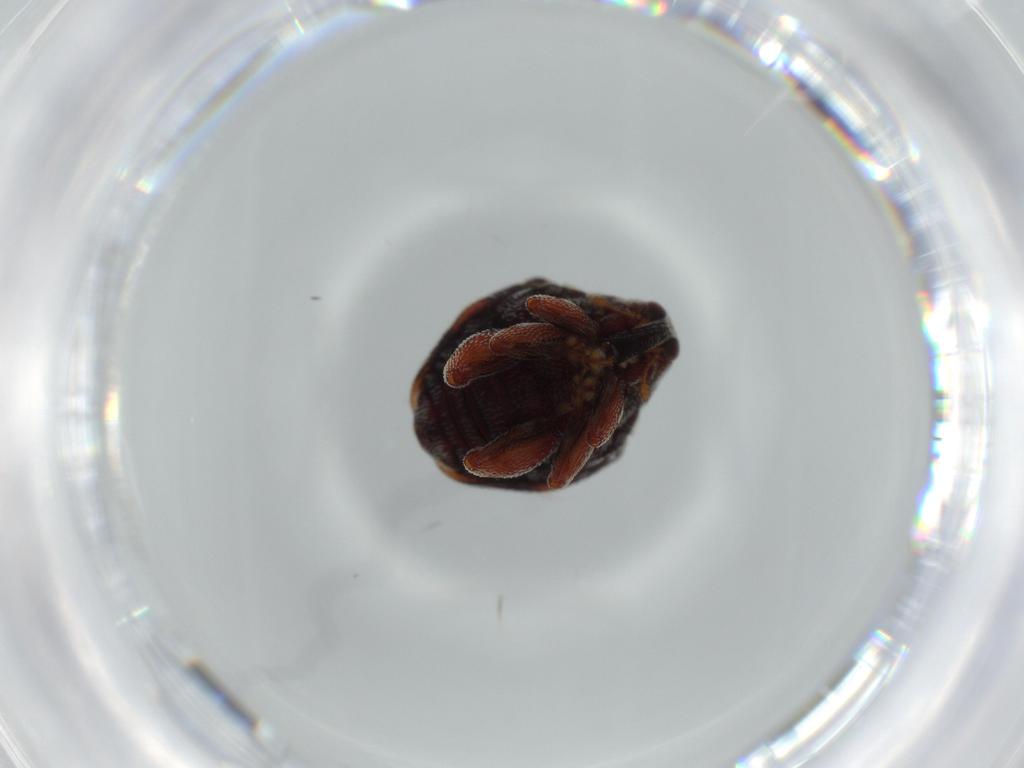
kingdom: Animalia
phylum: Arthropoda
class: Insecta
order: Coleoptera
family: Curculionidae
